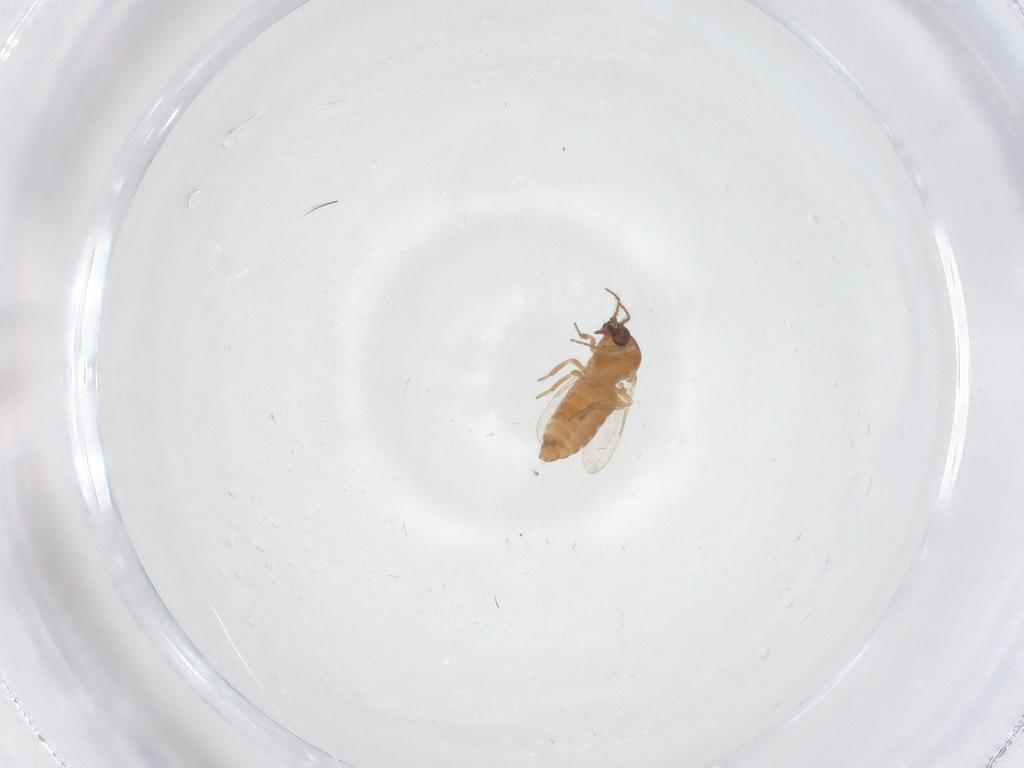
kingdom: Animalia
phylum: Arthropoda
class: Insecta
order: Diptera
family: Ceratopogonidae
